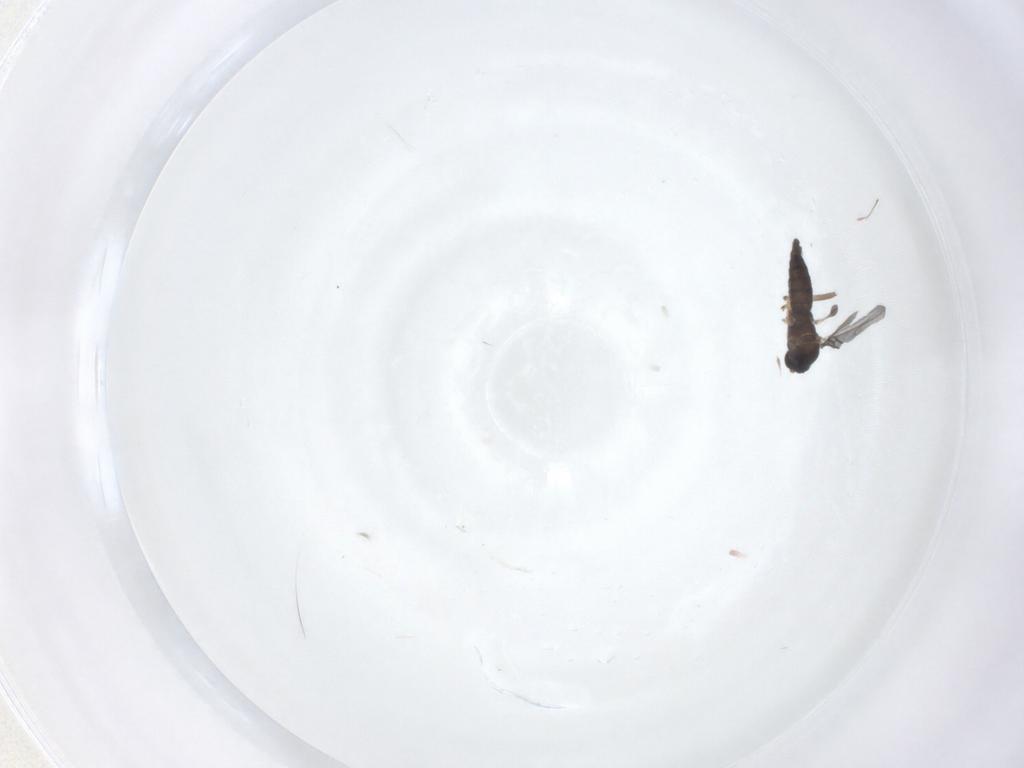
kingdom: Animalia
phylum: Arthropoda
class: Insecta
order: Diptera
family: Sciaridae
